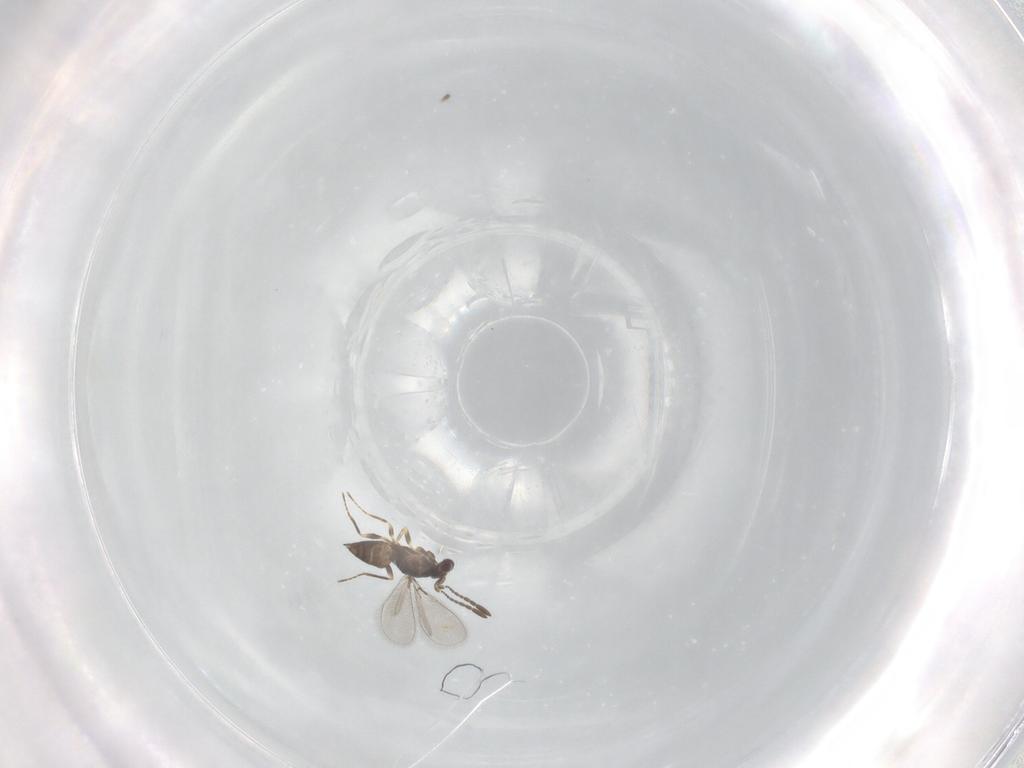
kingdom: Animalia
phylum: Arthropoda
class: Insecta
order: Hymenoptera
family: Mymaridae
